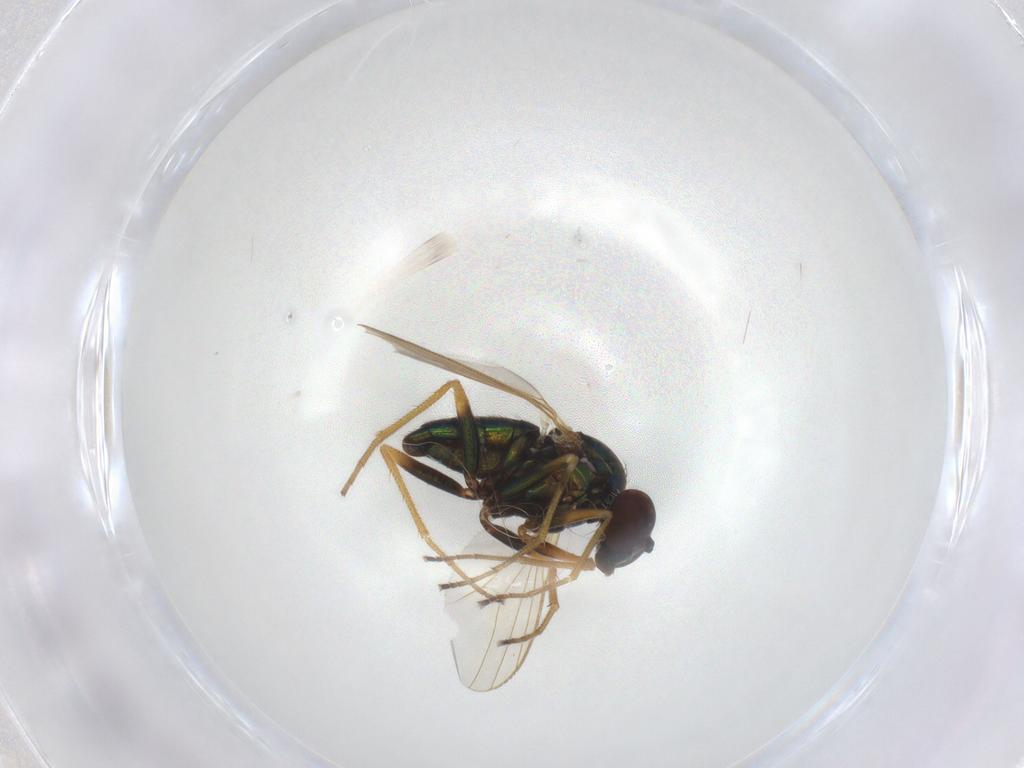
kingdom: Animalia
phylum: Arthropoda
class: Insecta
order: Diptera
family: Dolichopodidae
